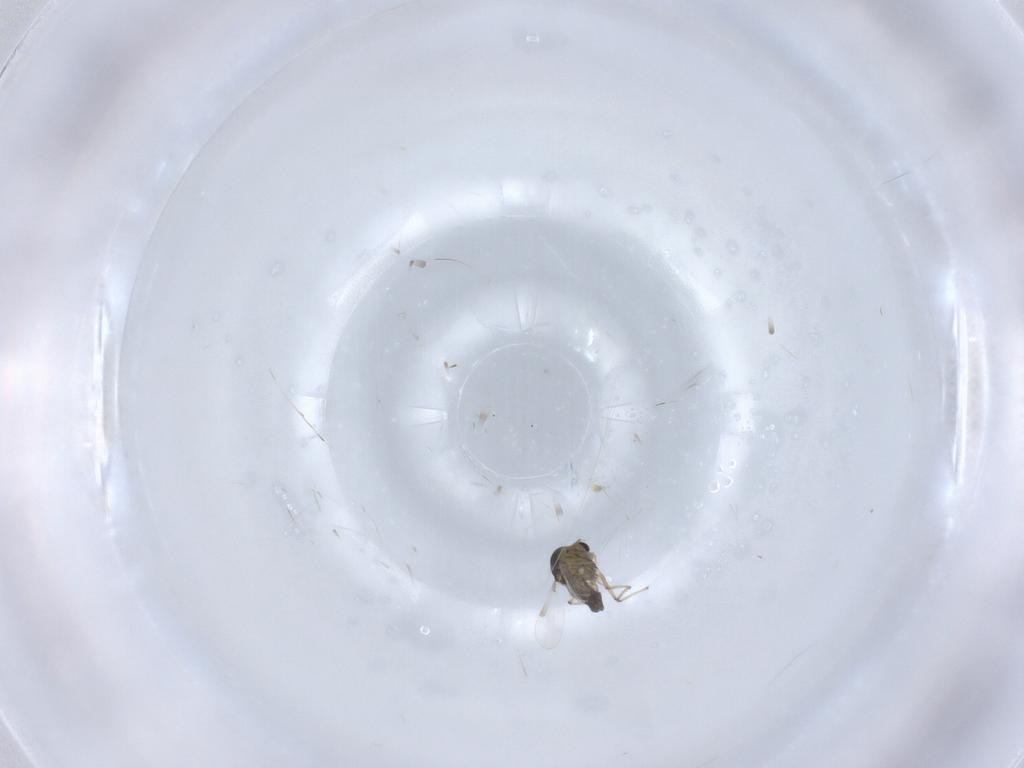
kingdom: Animalia
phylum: Arthropoda
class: Insecta
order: Diptera
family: Chironomidae
